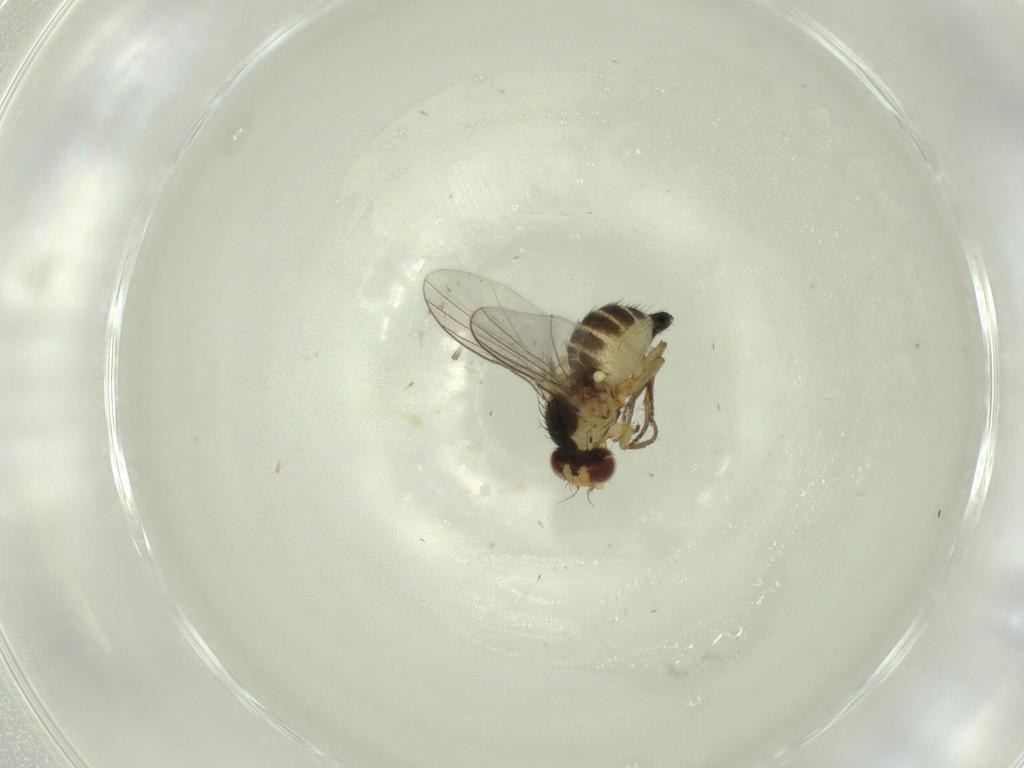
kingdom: Animalia
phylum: Arthropoda
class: Insecta
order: Diptera
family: Agromyzidae
